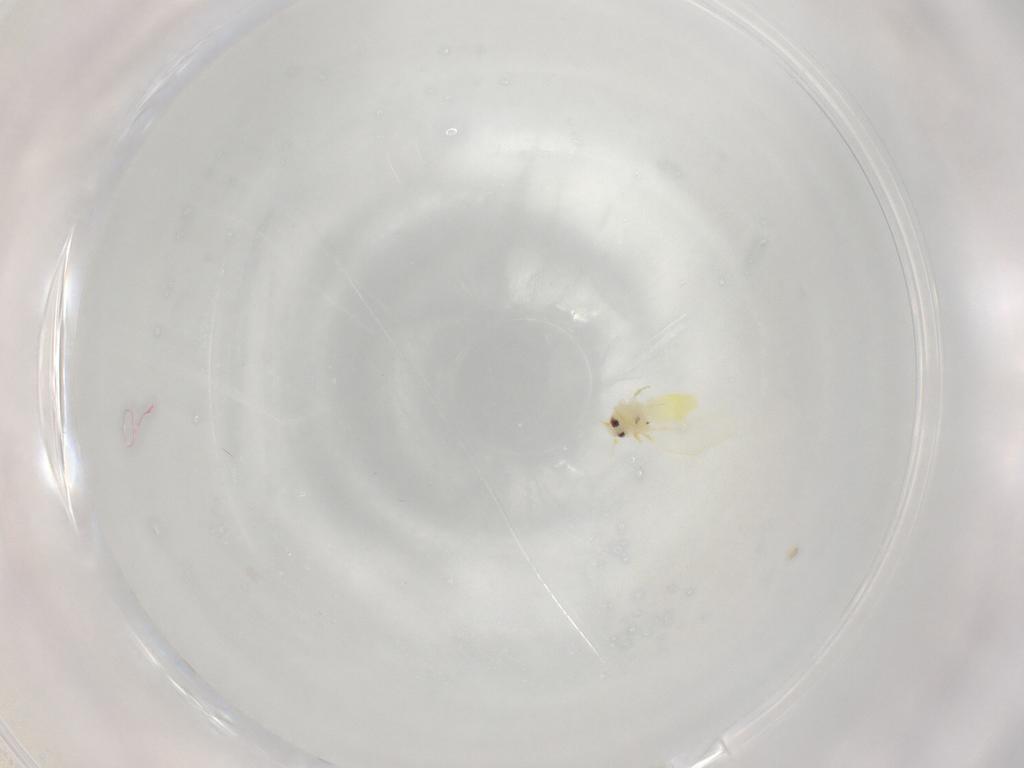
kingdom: Animalia
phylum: Arthropoda
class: Insecta
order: Hemiptera
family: Aleyrodidae
